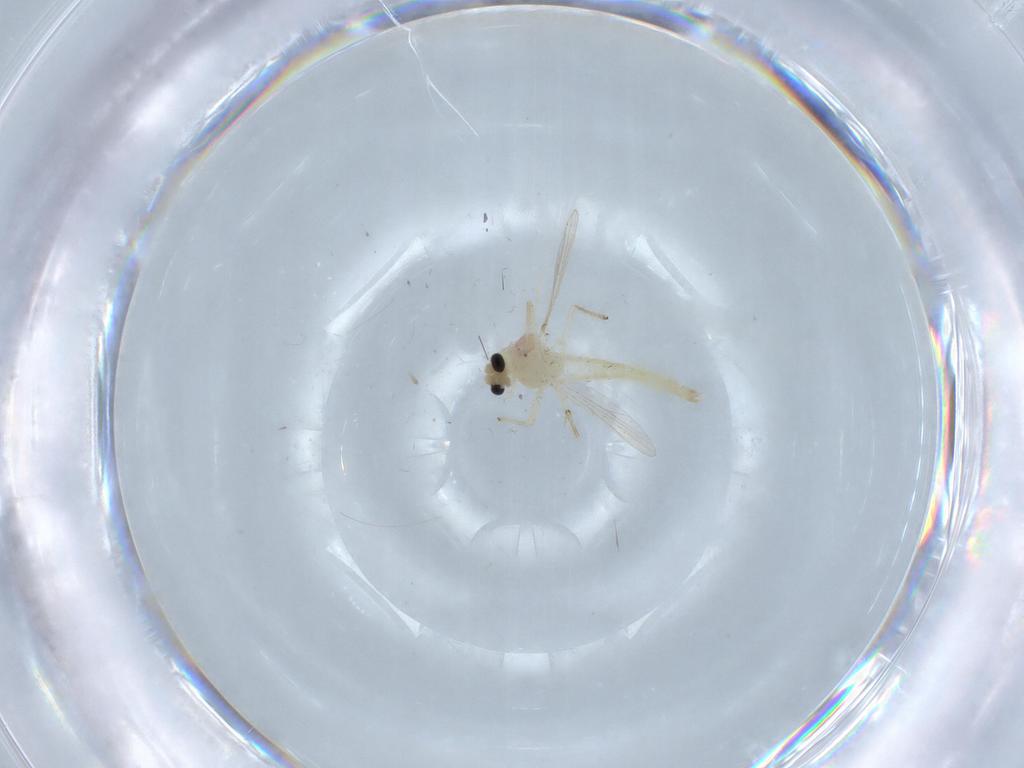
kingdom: Animalia
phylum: Arthropoda
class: Insecta
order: Diptera
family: Chironomidae
